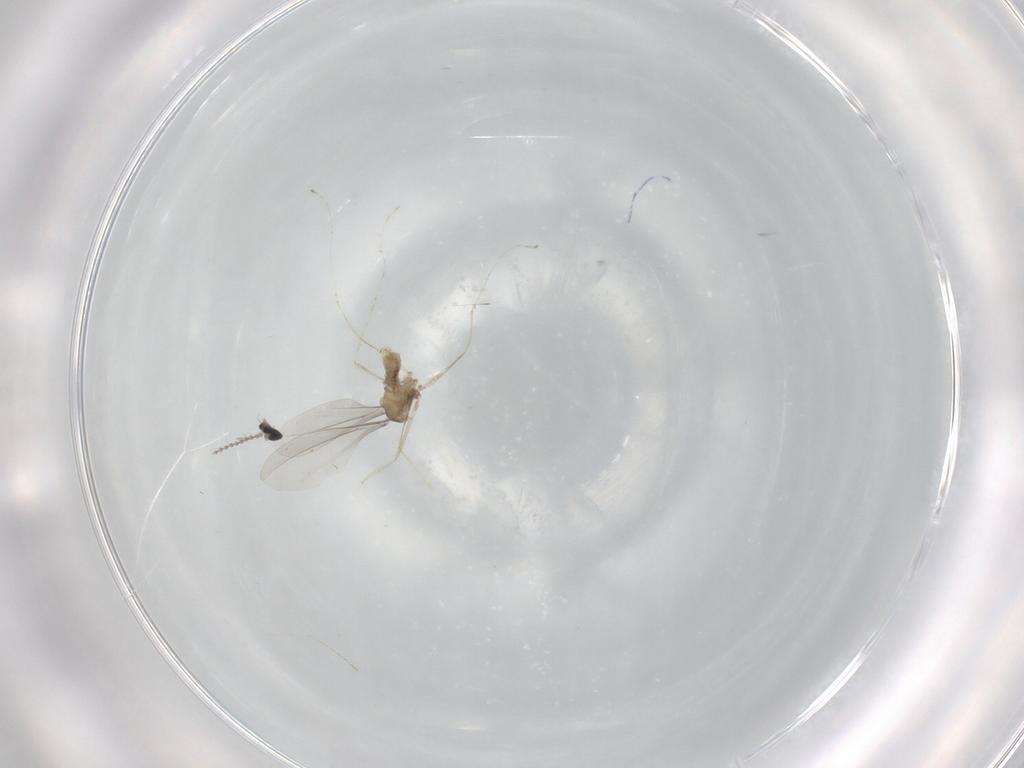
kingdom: Animalia
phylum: Arthropoda
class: Insecta
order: Diptera
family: Cecidomyiidae
